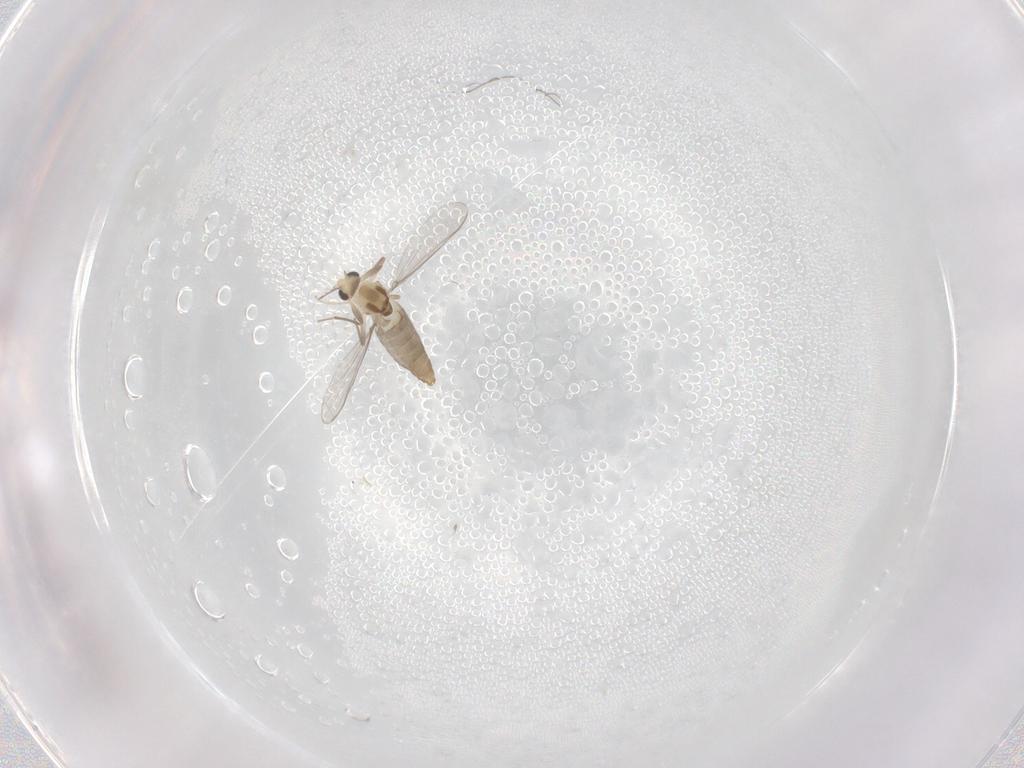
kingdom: Animalia
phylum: Arthropoda
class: Insecta
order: Diptera
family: Chironomidae
